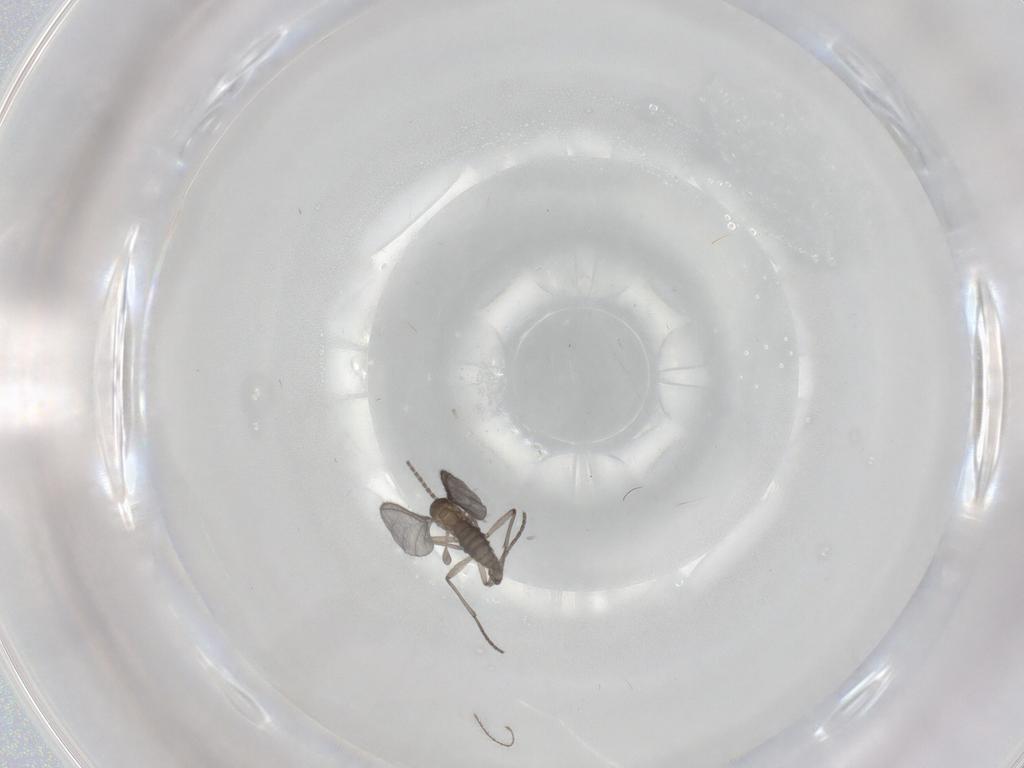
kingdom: Animalia
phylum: Arthropoda
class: Insecta
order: Diptera
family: Sciaridae
